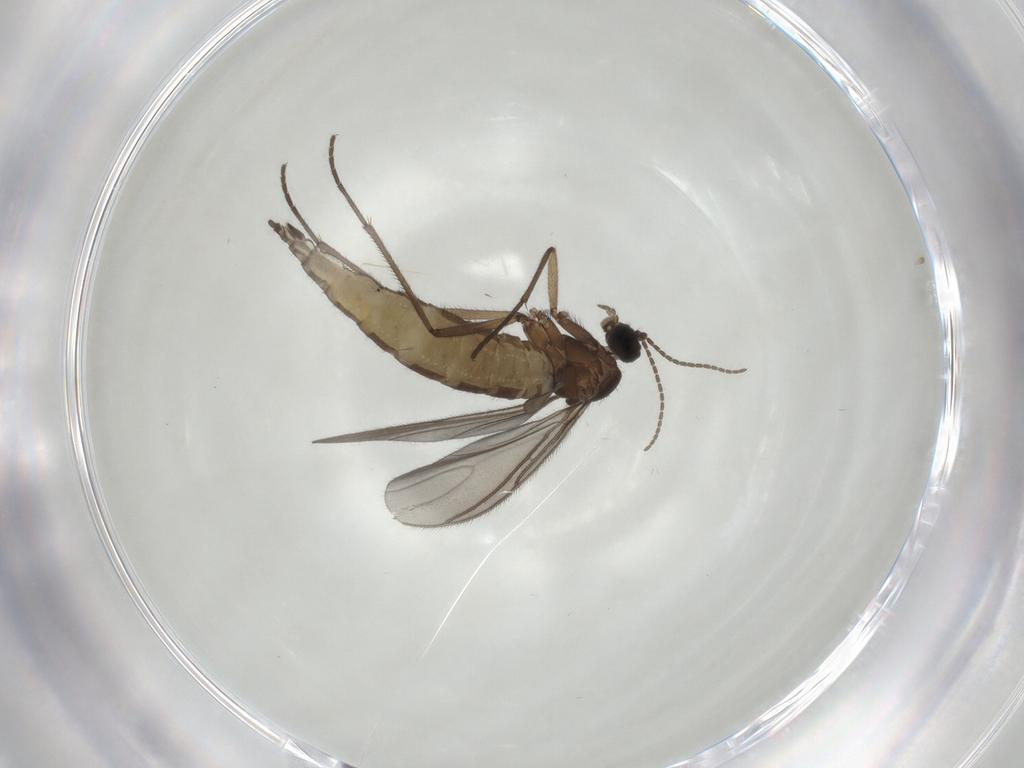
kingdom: Animalia
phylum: Arthropoda
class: Insecta
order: Diptera
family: Sciaridae
